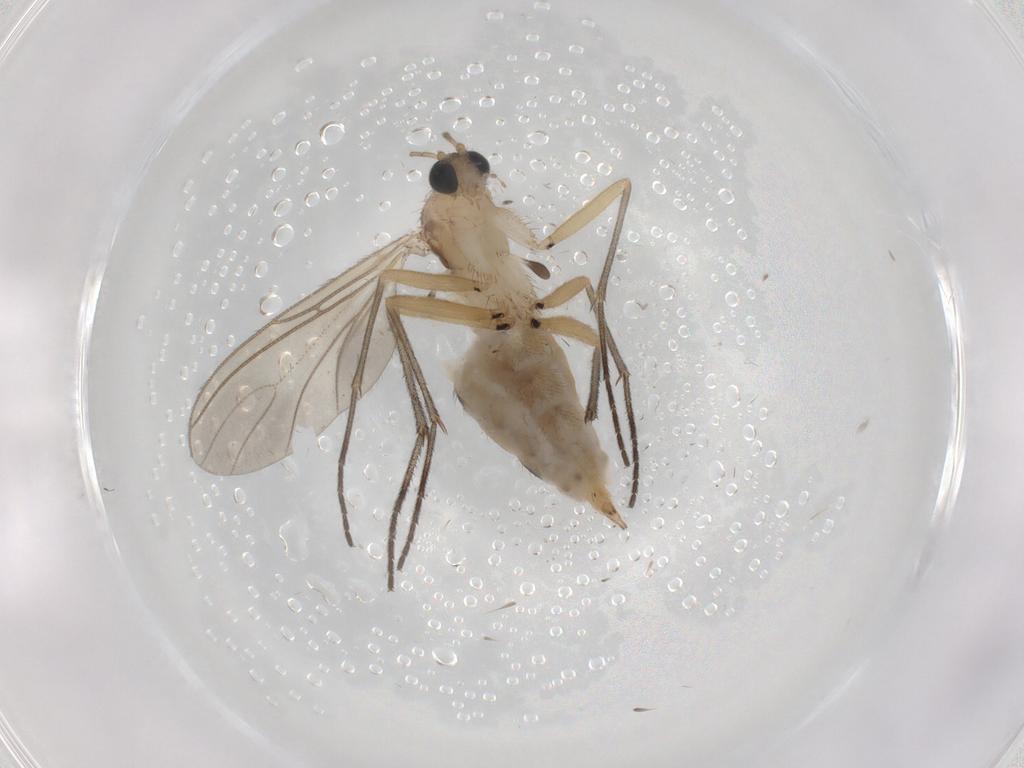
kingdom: Animalia
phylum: Arthropoda
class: Insecta
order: Diptera
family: Ceratopogonidae
